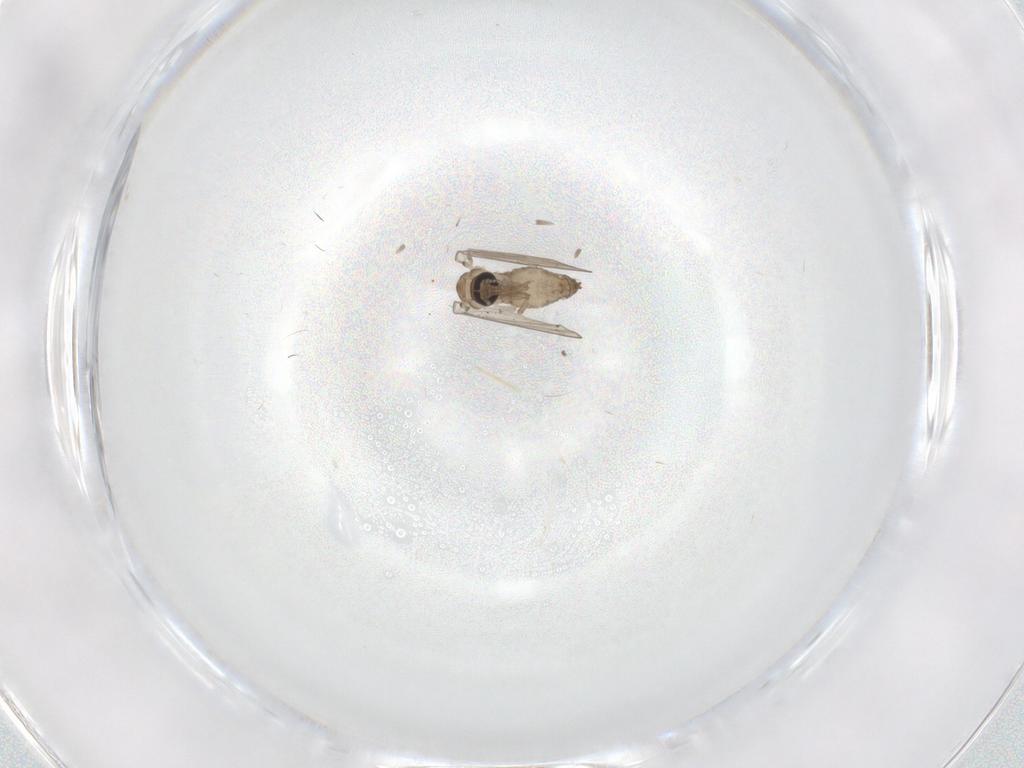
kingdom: Animalia
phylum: Arthropoda
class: Insecta
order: Diptera
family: Psychodidae
